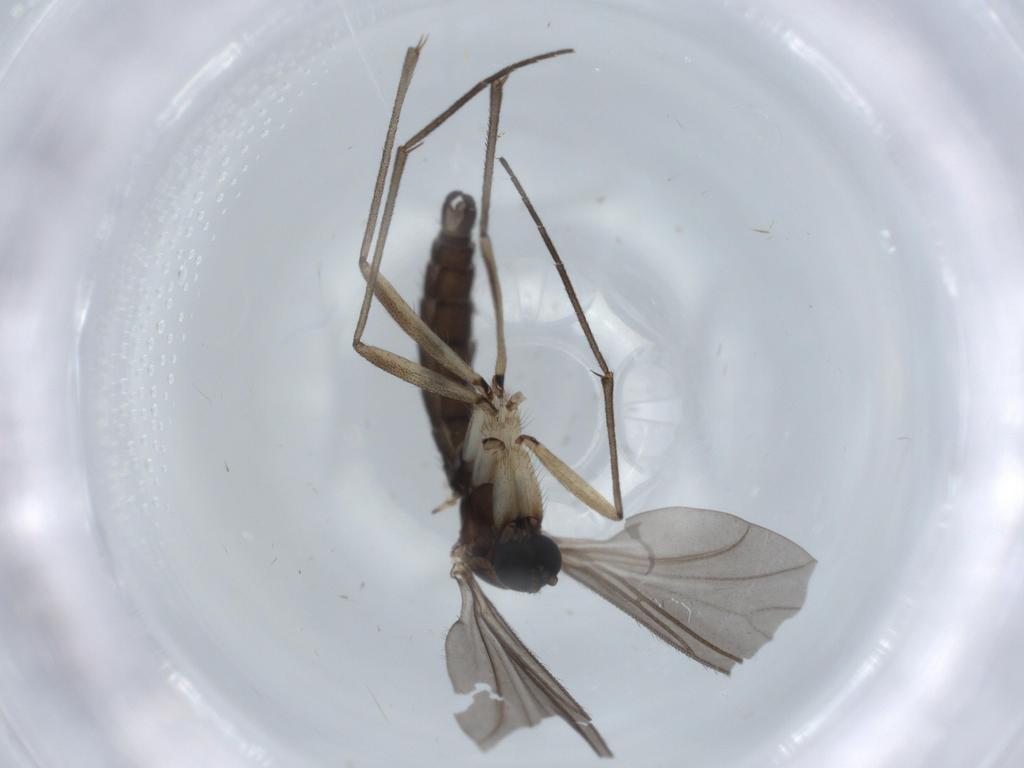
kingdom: Animalia
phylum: Arthropoda
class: Insecta
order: Diptera
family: Sciaridae
